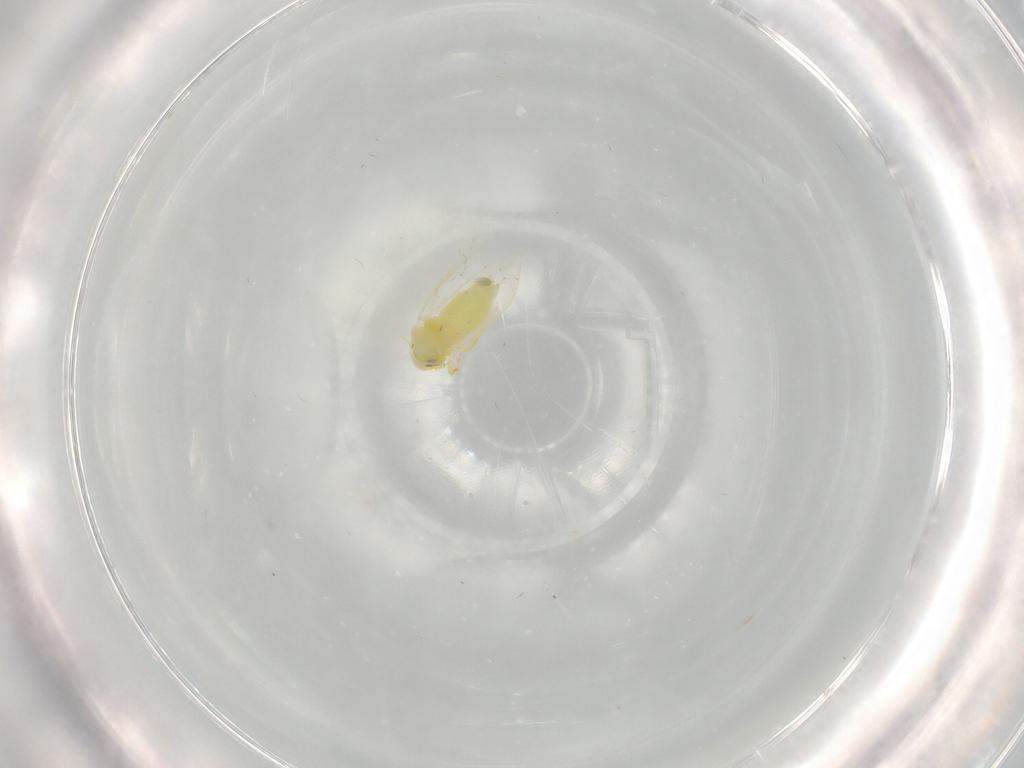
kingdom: Animalia
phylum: Arthropoda
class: Insecta
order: Hemiptera
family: Aleyrodidae
